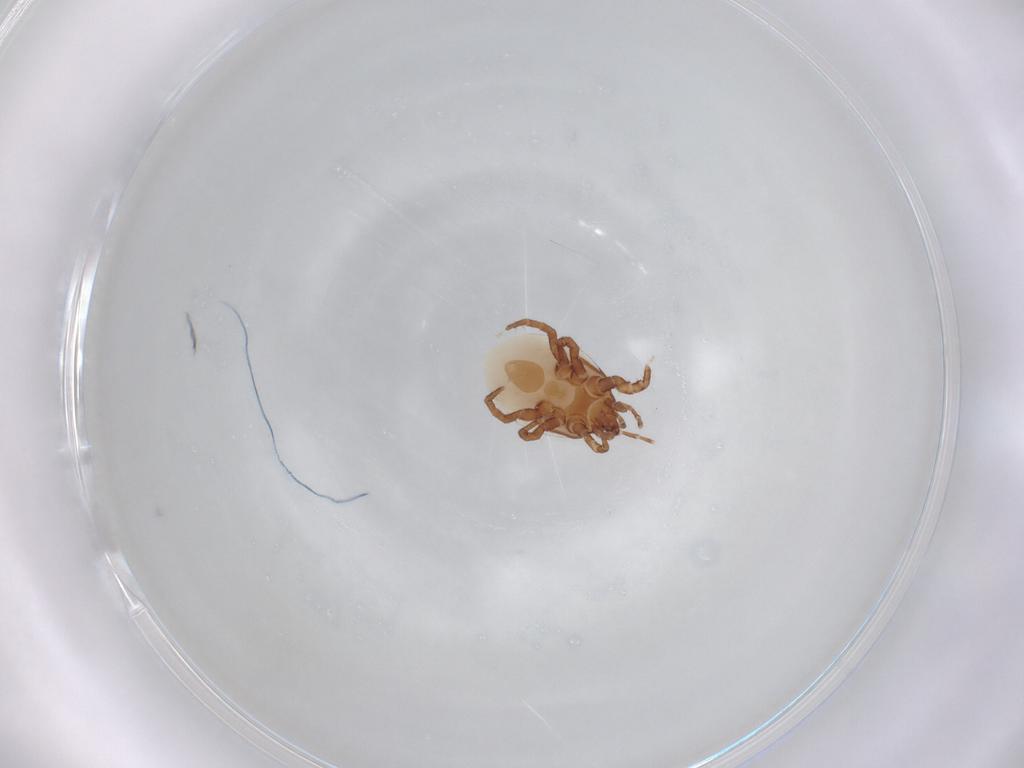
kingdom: Animalia
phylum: Arthropoda
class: Arachnida
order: Mesostigmata
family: Macrochelidae
